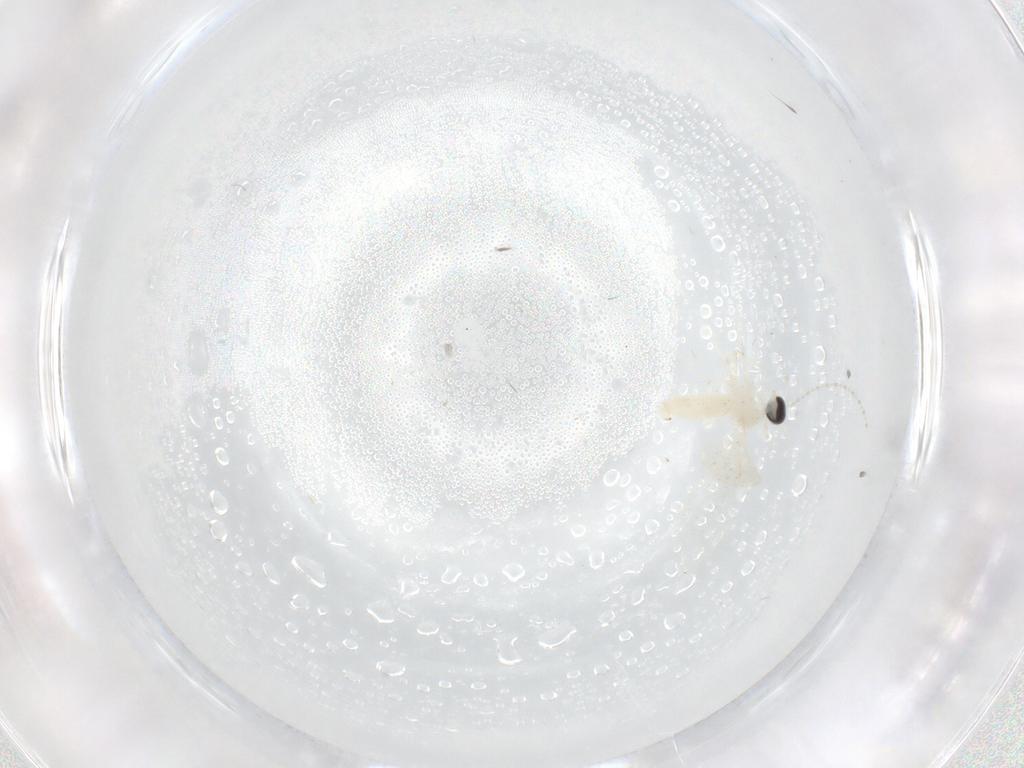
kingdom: Animalia
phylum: Arthropoda
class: Insecta
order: Diptera
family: Cecidomyiidae
